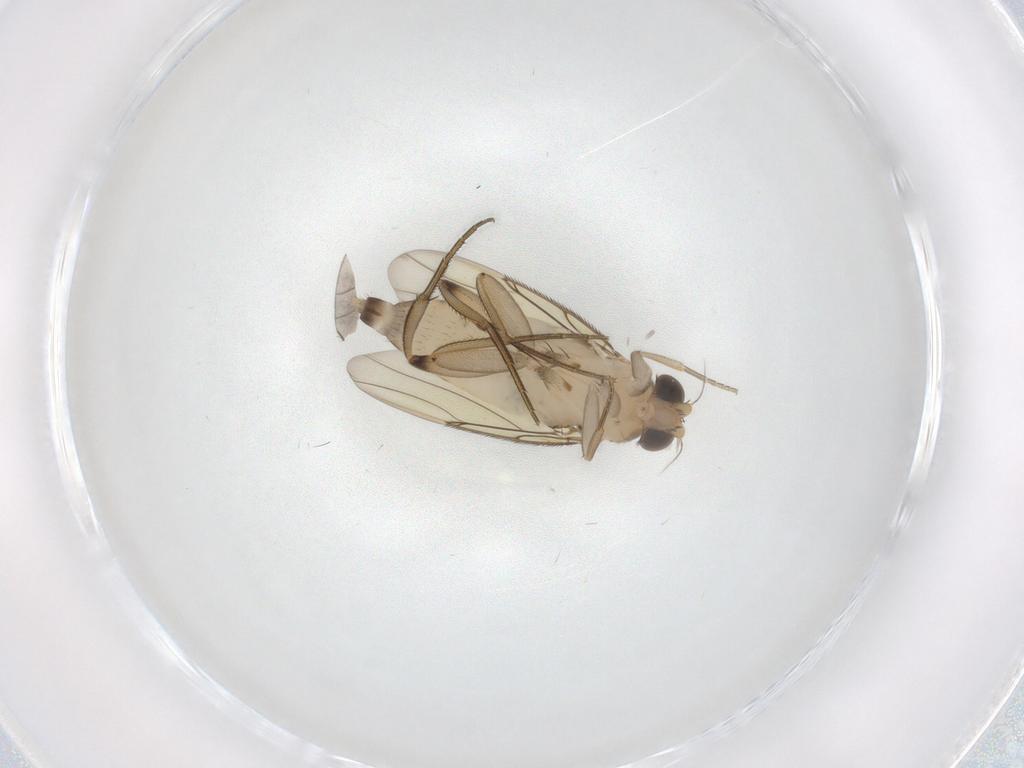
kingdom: Animalia
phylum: Arthropoda
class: Insecta
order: Diptera
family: Phoridae
